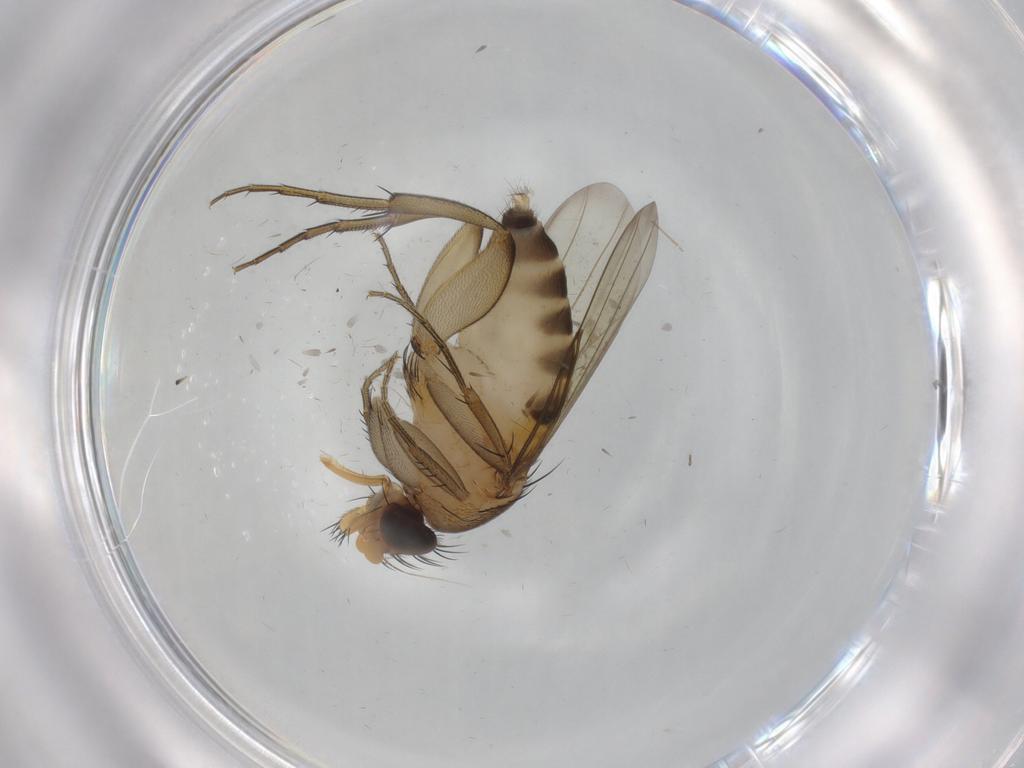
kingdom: Animalia
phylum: Arthropoda
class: Insecta
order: Diptera
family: Phoridae
